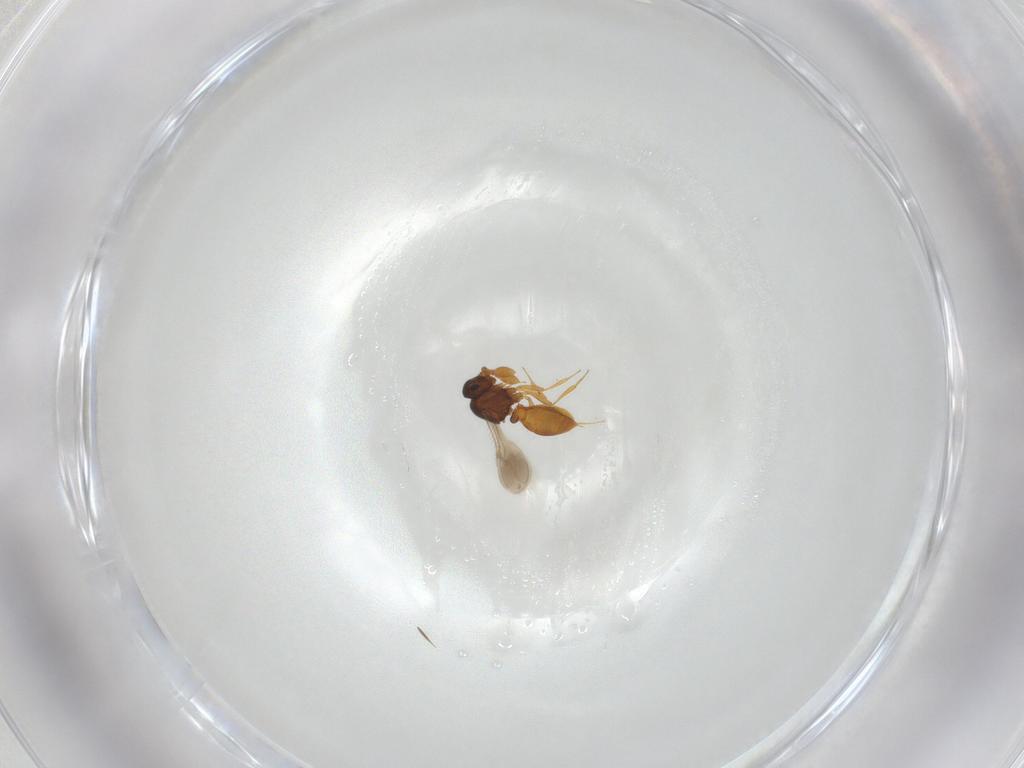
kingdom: Animalia
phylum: Arthropoda
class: Insecta
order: Hymenoptera
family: Scelionidae
